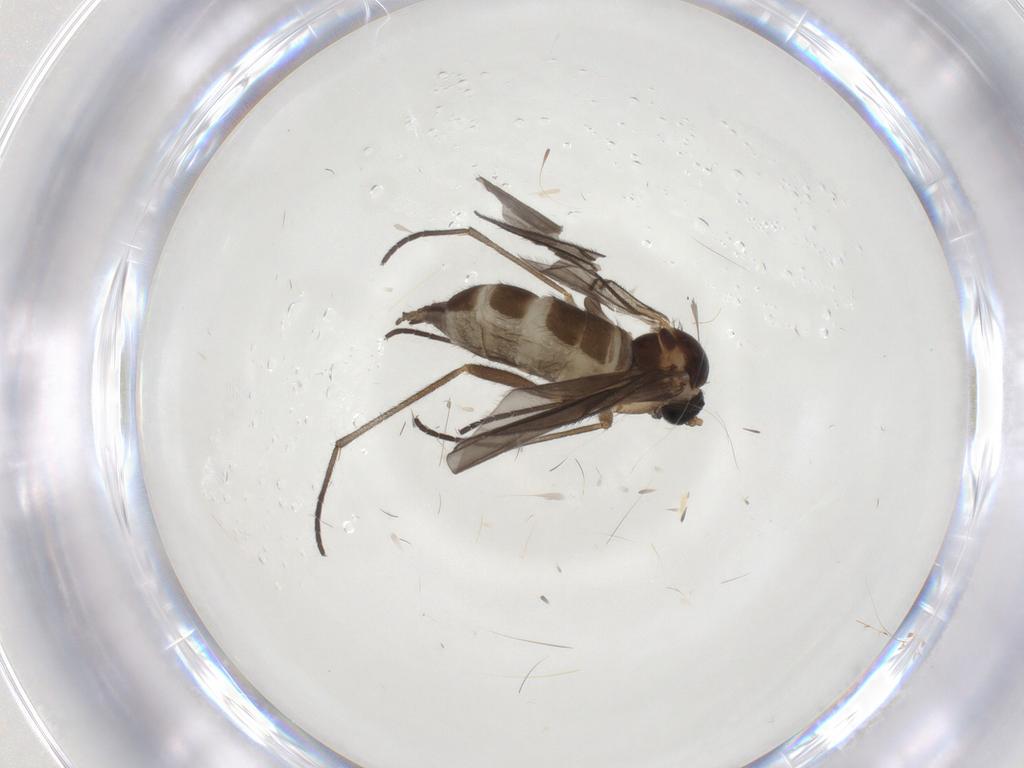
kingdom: Animalia
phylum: Arthropoda
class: Insecta
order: Diptera
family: Sciaridae
